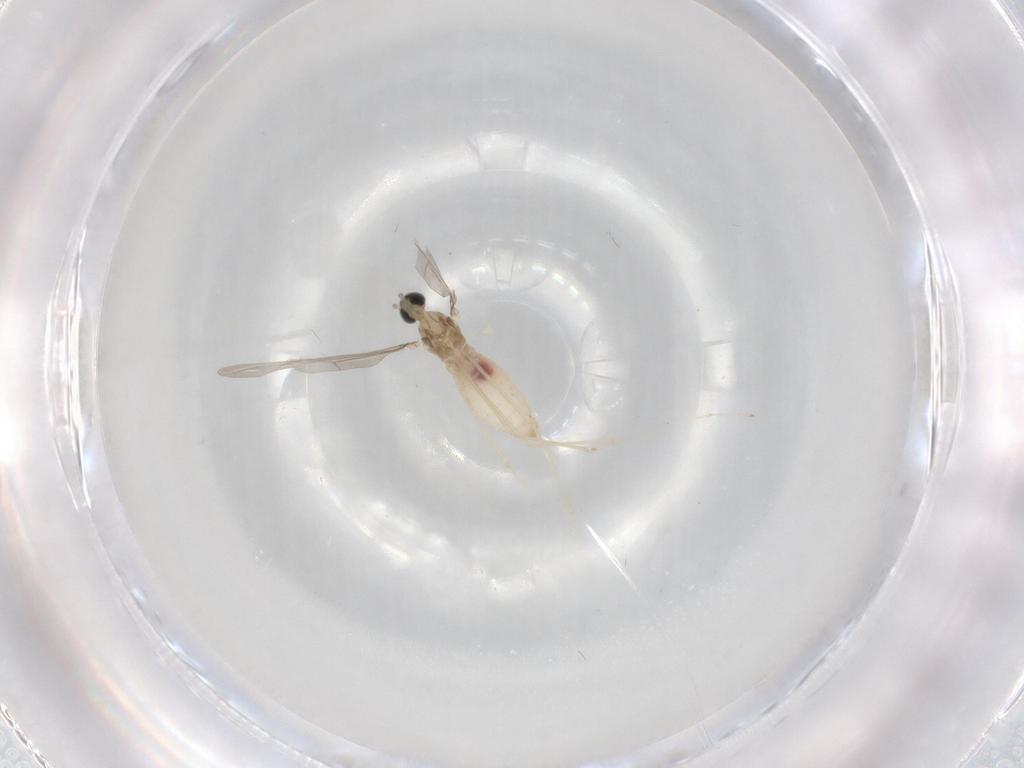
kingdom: Animalia
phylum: Arthropoda
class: Insecta
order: Diptera
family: Cecidomyiidae
